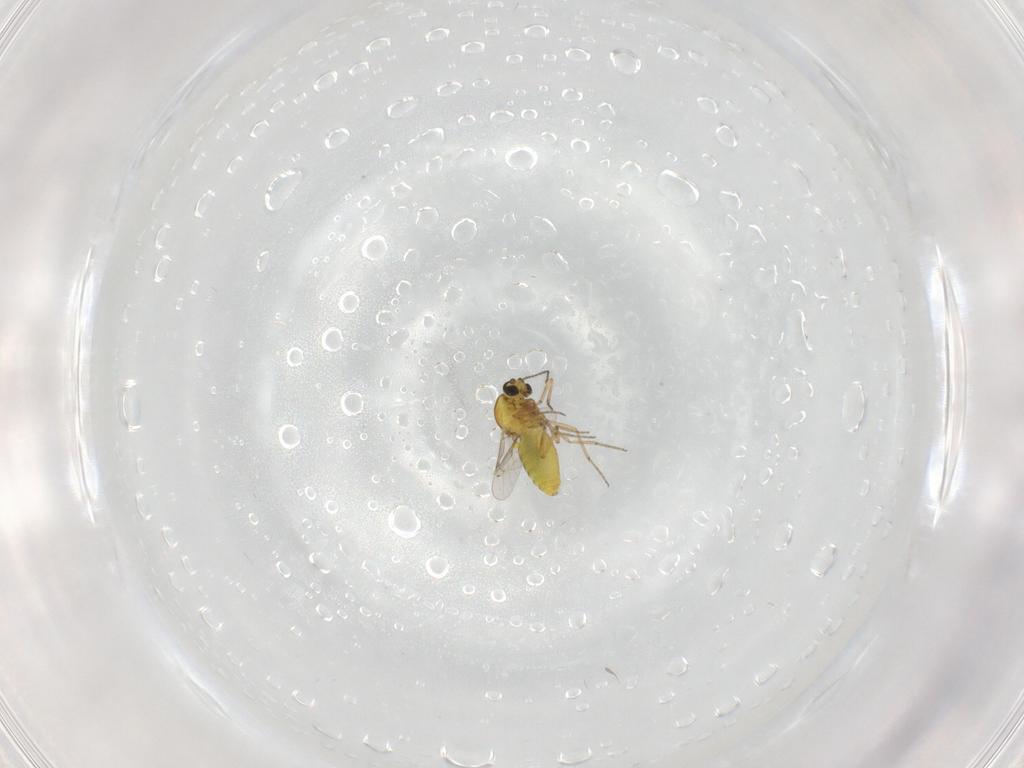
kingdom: Animalia
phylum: Arthropoda
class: Insecta
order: Diptera
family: Ceratopogonidae
